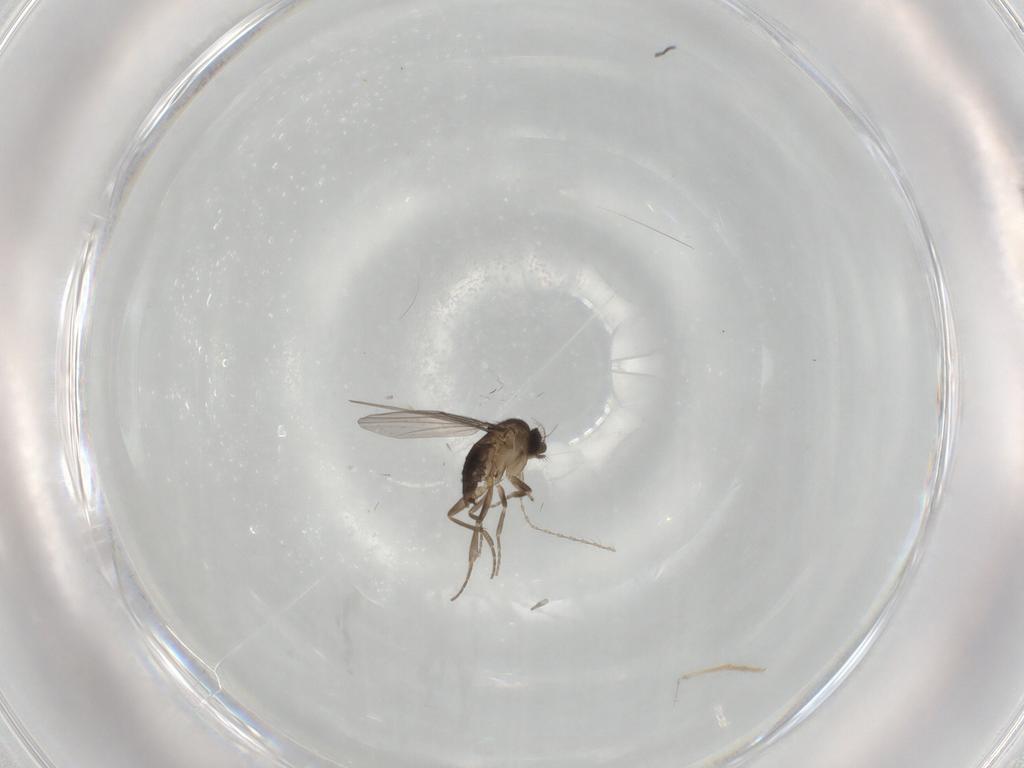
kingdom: Animalia
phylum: Arthropoda
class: Insecta
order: Diptera
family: Cecidomyiidae
